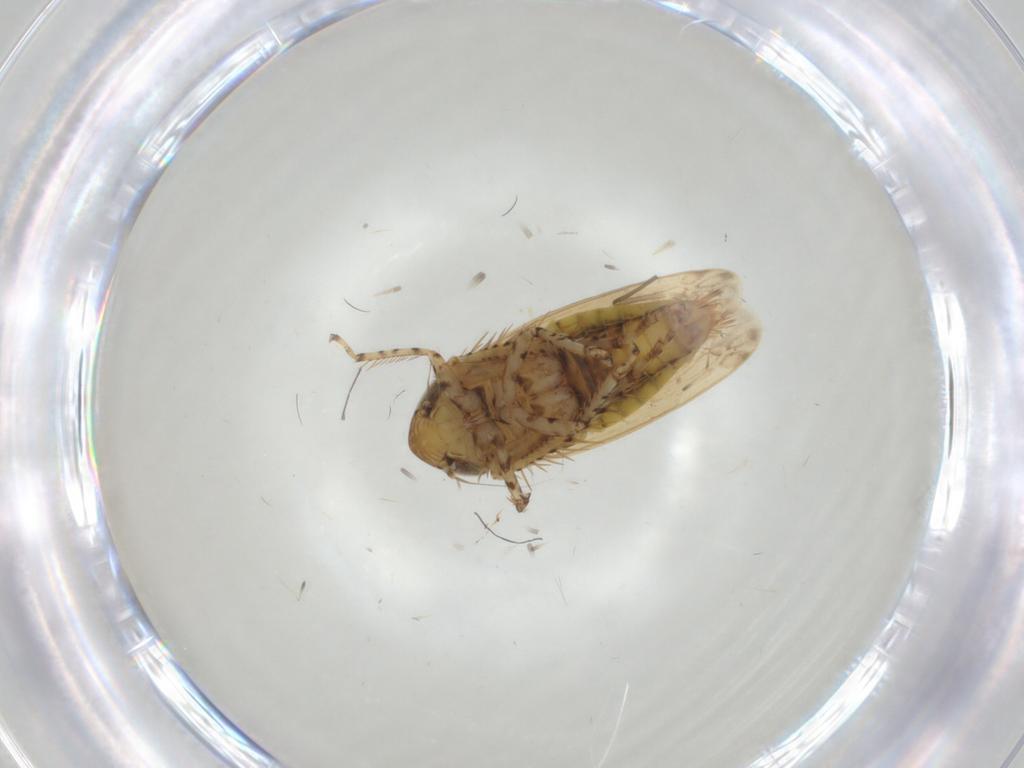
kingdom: Animalia
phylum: Arthropoda
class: Insecta
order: Hemiptera
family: Cicadellidae
